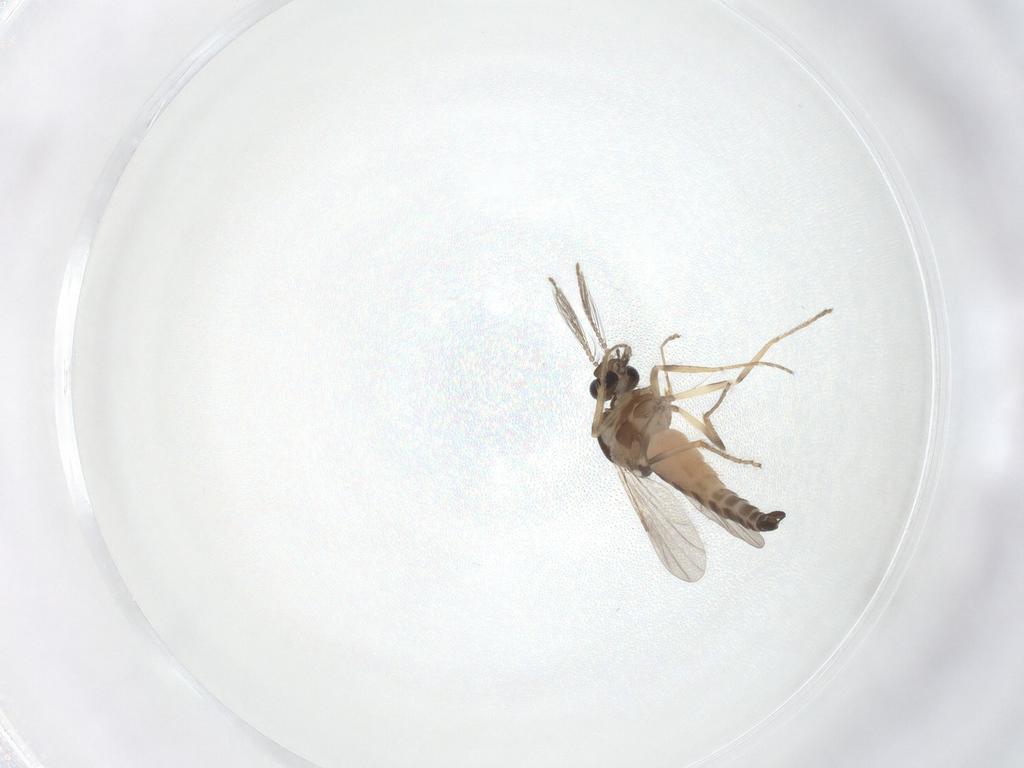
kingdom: Animalia
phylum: Arthropoda
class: Insecta
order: Diptera
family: Ceratopogonidae
